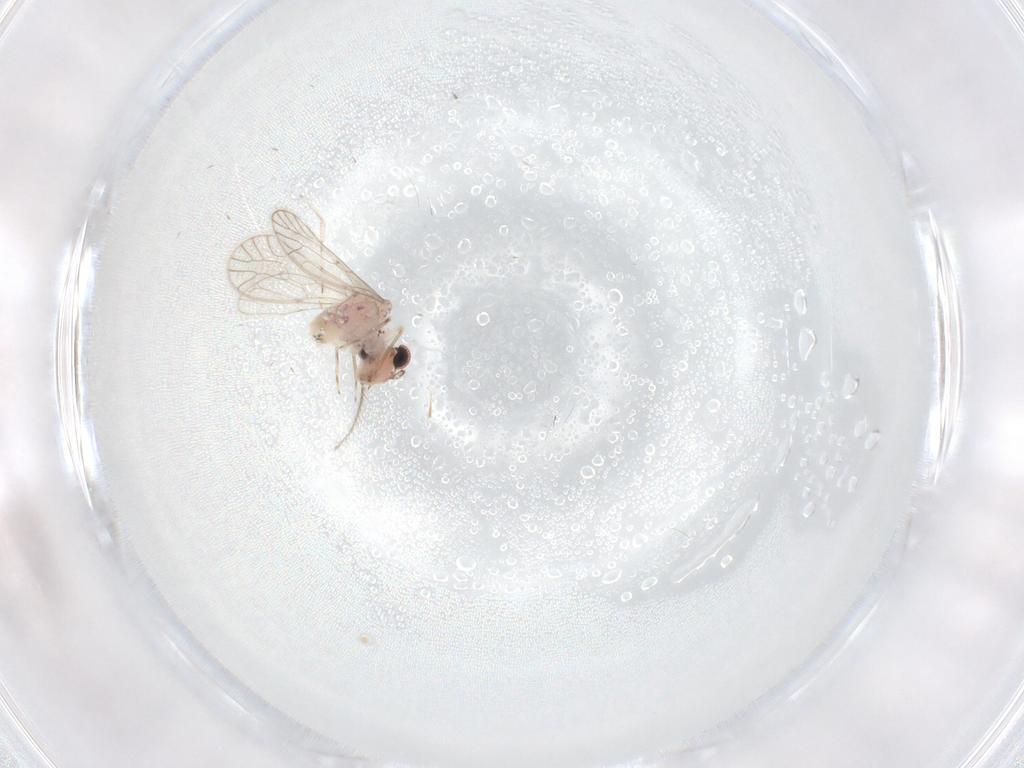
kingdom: Animalia
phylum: Arthropoda
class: Insecta
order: Psocodea
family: Caeciliusidae
